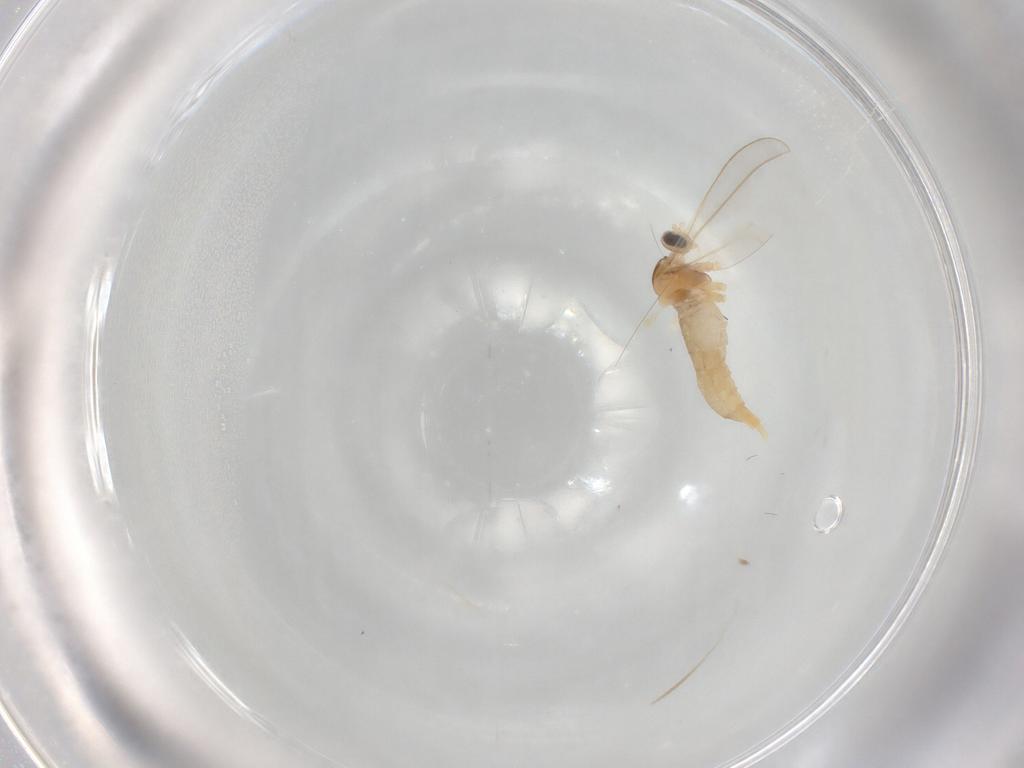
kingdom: Animalia
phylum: Arthropoda
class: Insecta
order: Diptera
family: Cecidomyiidae
